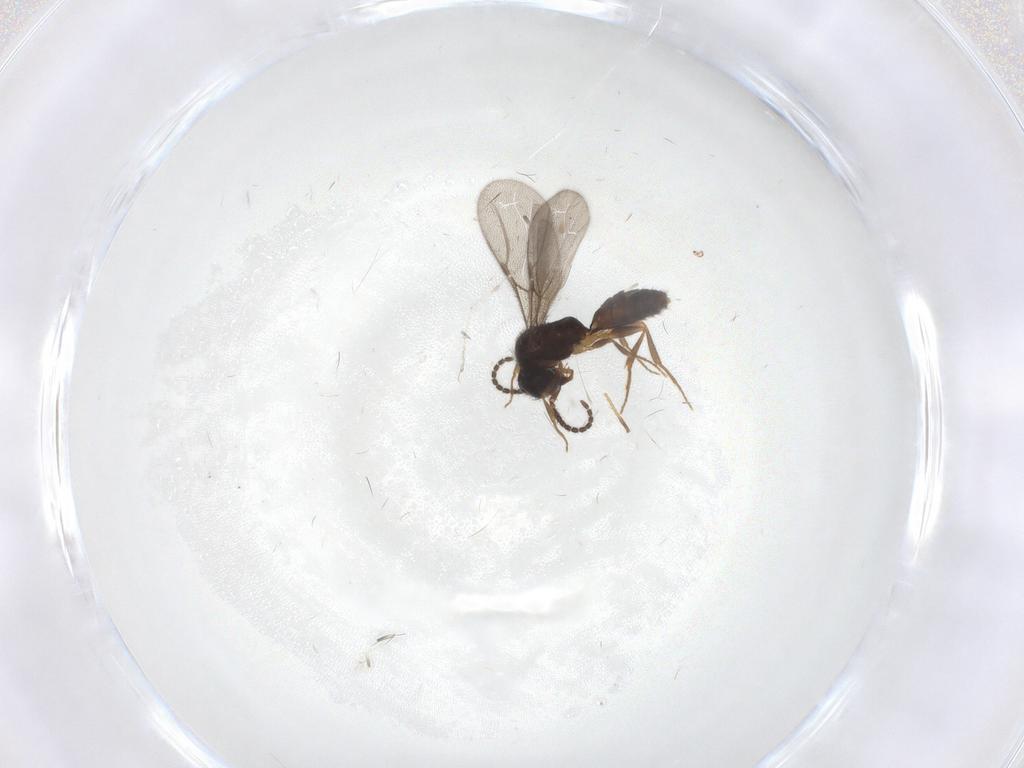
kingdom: Animalia
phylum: Arthropoda
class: Insecta
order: Hymenoptera
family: Bethylidae
